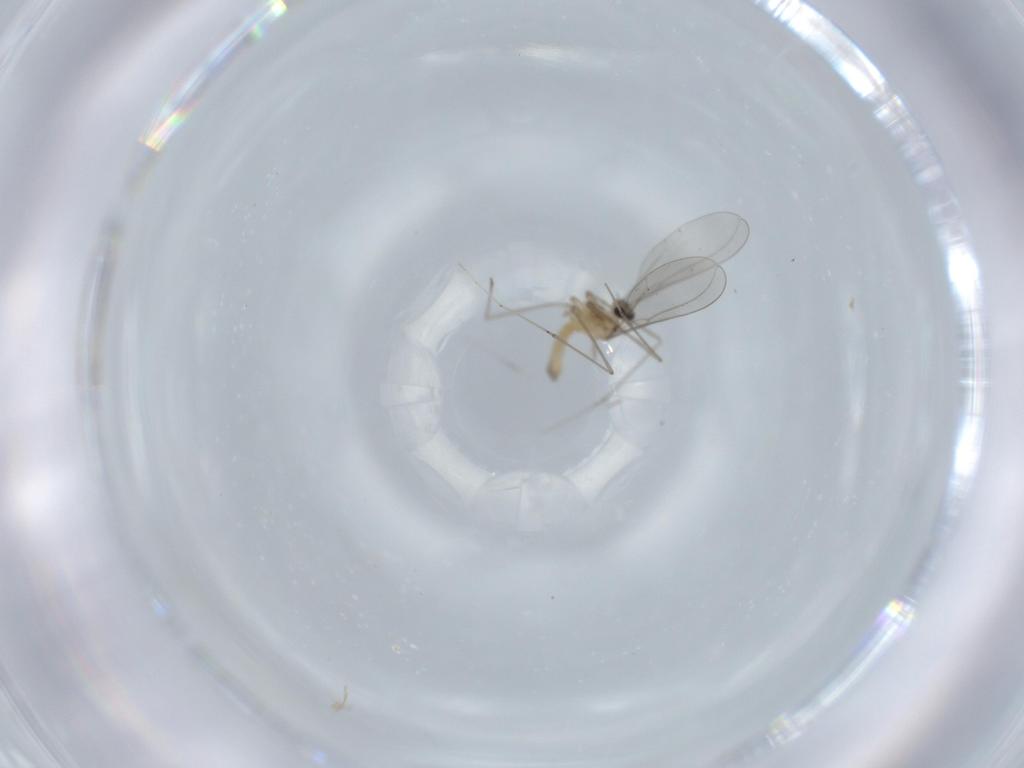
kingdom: Animalia
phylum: Arthropoda
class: Insecta
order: Diptera
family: Cecidomyiidae
